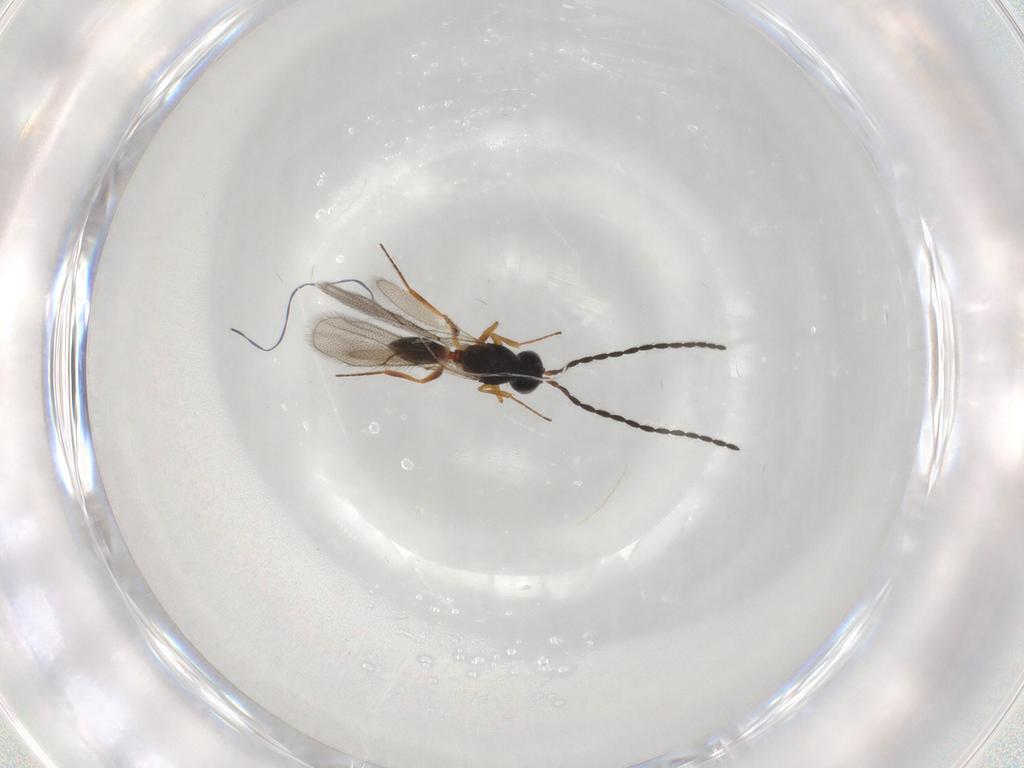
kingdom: Animalia
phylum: Arthropoda
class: Insecta
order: Hymenoptera
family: Figitidae
